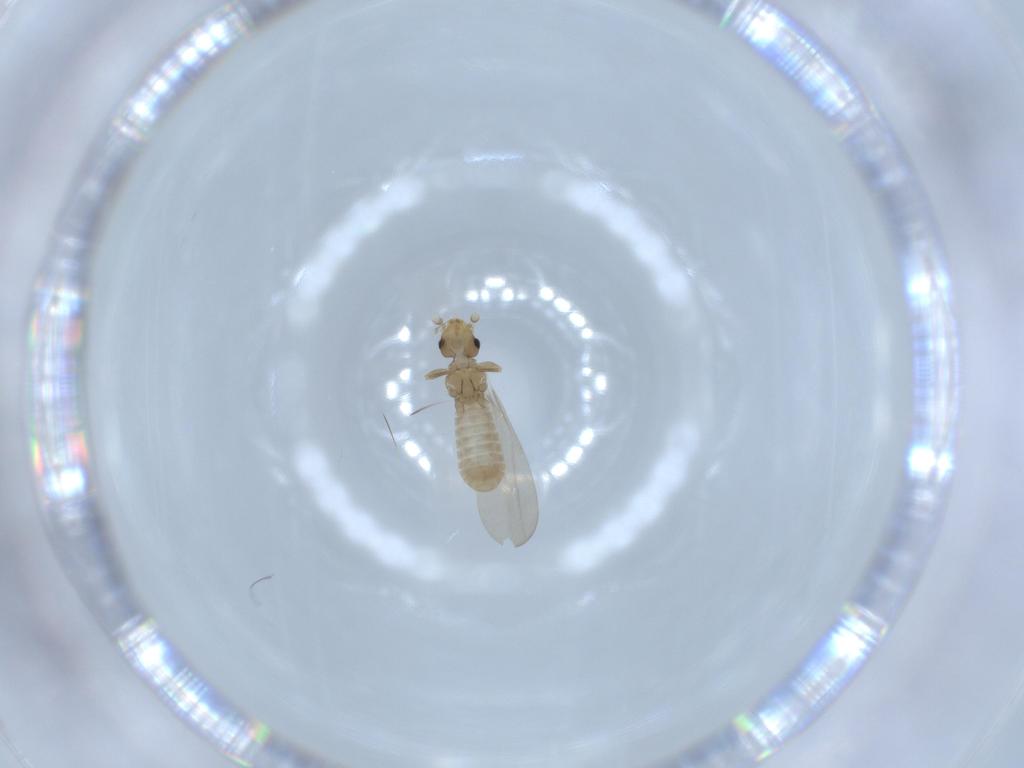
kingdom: Animalia
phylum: Arthropoda
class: Insecta
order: Psocodea
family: Liposcelididae
